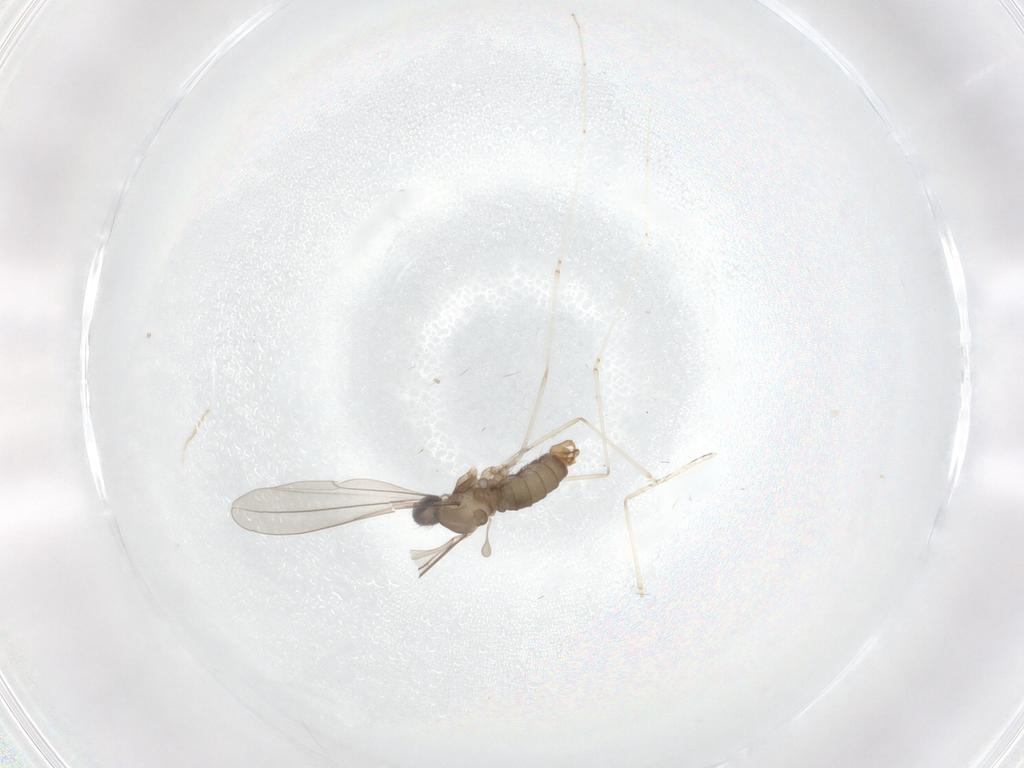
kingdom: Animalia
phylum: Arthropoda
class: Insecta
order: Diptera
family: Cecidomyiidae
